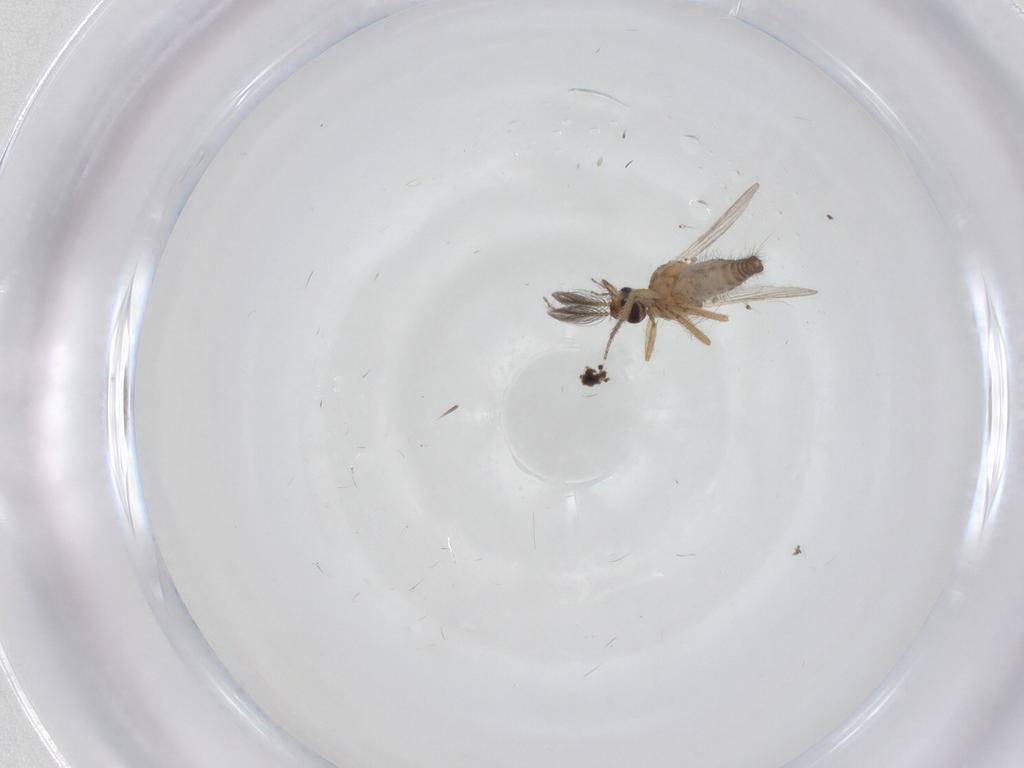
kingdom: Animalia
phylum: Arthropoda
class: Insecta
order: Diptera
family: Ceratopogonidae
